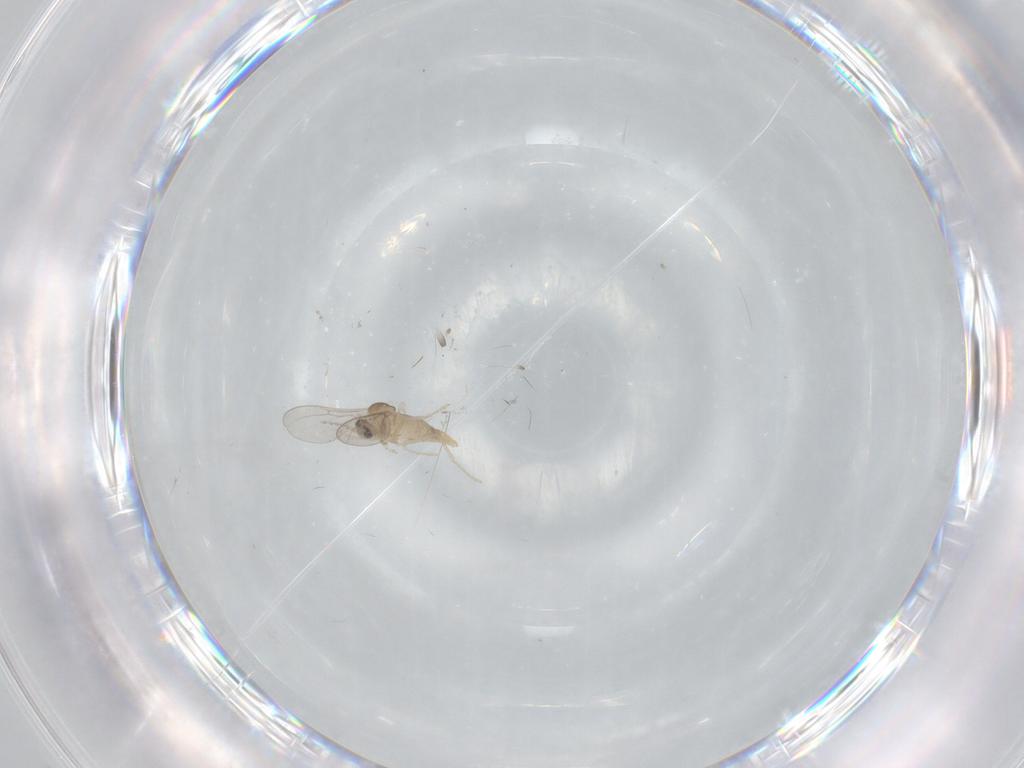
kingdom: Animalia
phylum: Arthropoda
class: Insecta
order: Diptera
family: Cecidomyiidae
